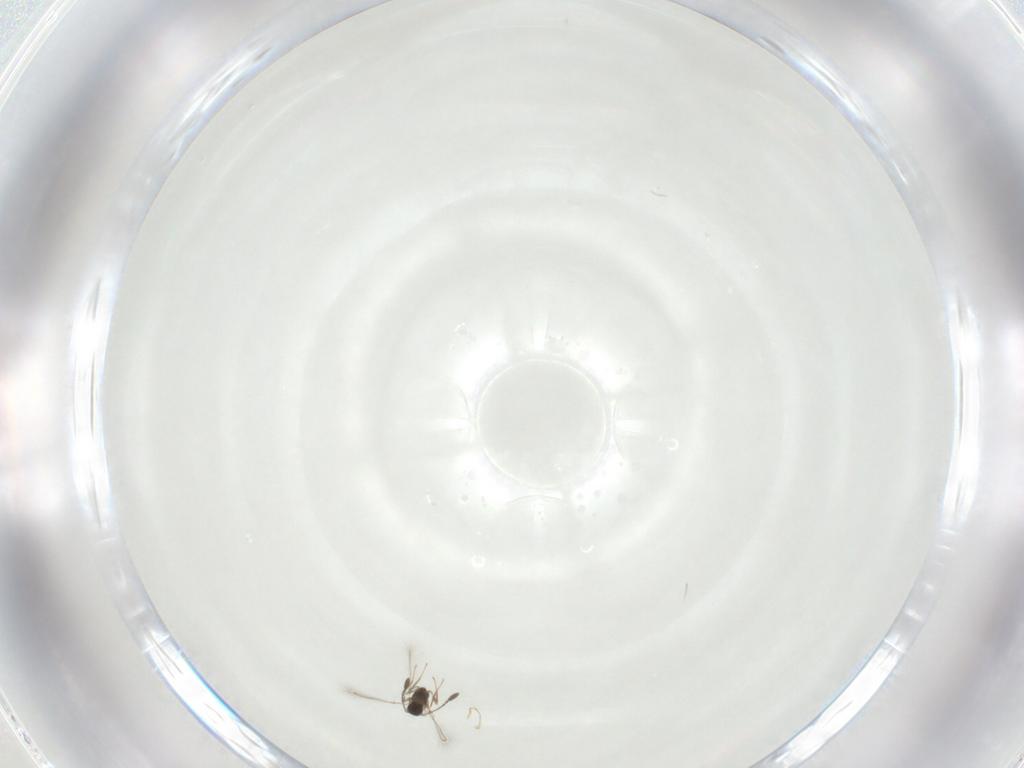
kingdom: Animalia
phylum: Arthropoda
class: Insecta
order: Hymenoptera
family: Mymaridae
